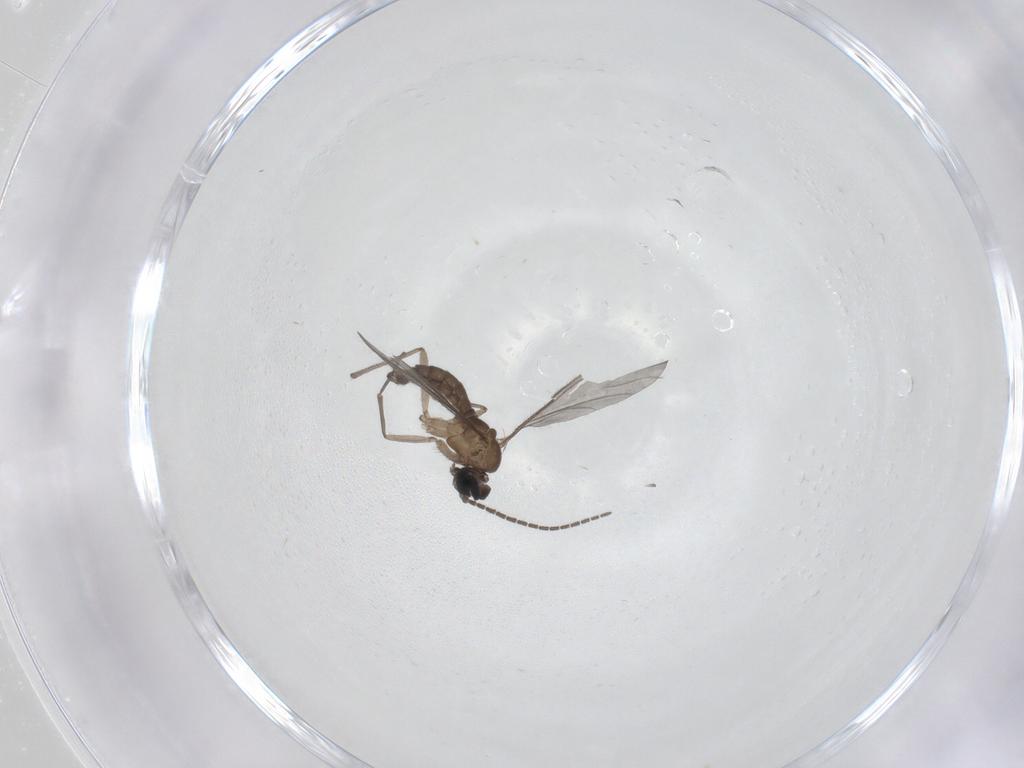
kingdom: Animalia
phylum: Arthropoda
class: Insecta
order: Diptera
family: Sciaridae
